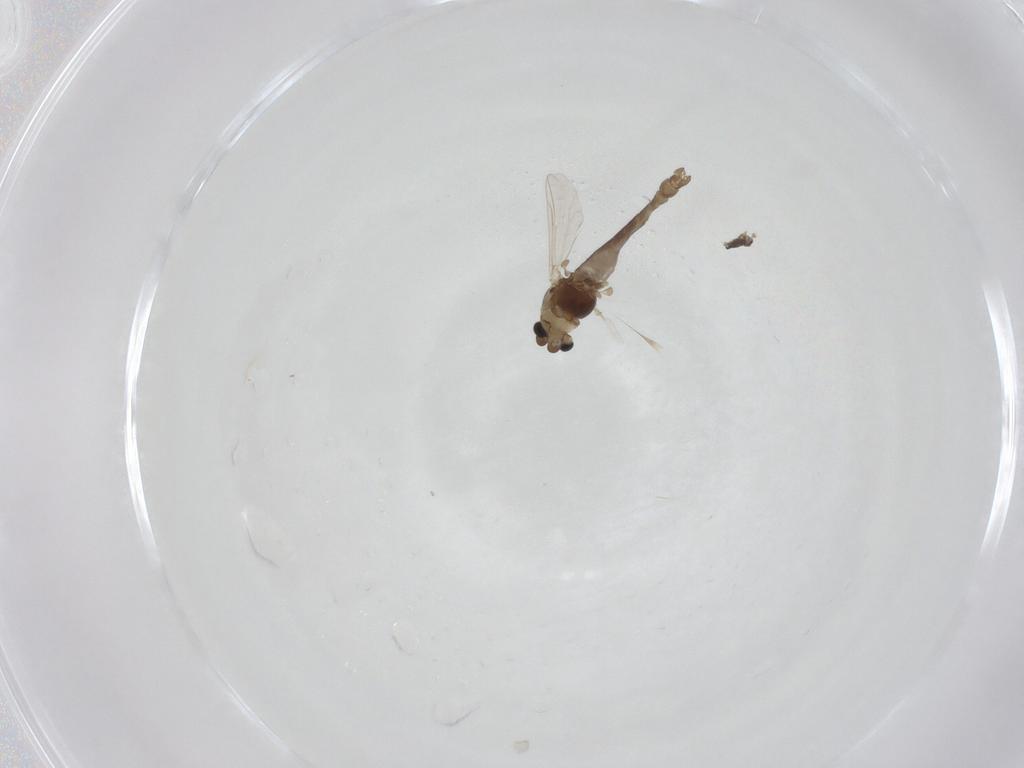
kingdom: Animalia
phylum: Arthropoda
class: Insecta
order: Diptera
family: Chironomidae
